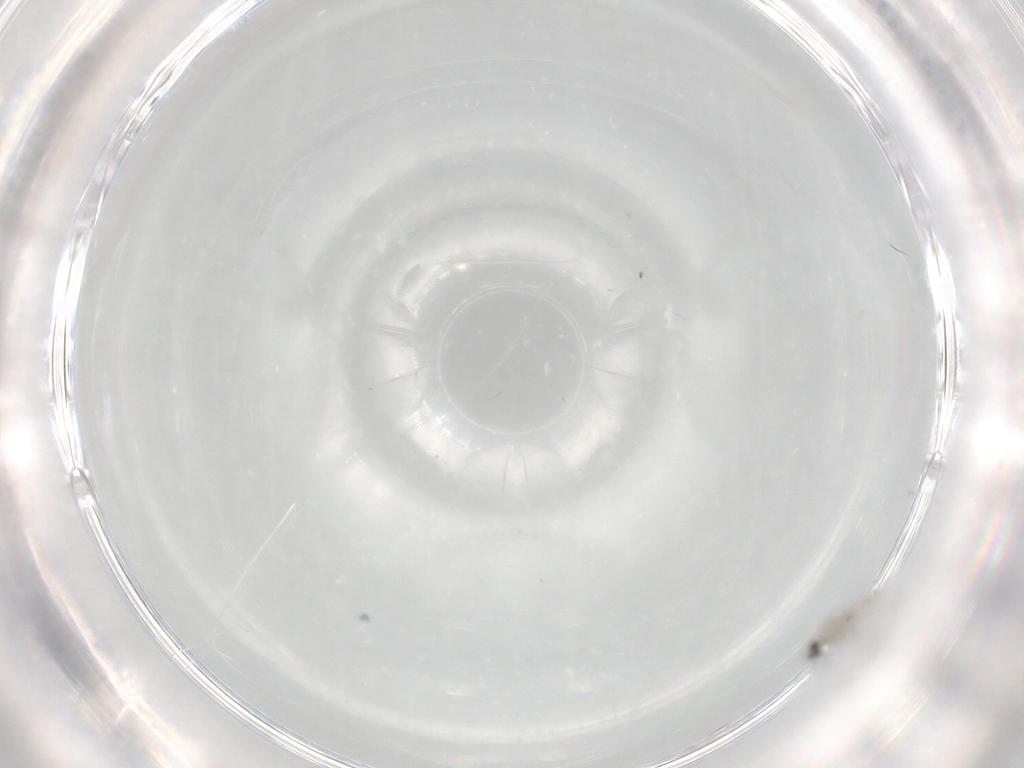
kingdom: Animalia
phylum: Arthropoda
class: Insecta
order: Diptera
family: Cecidomyiidae
